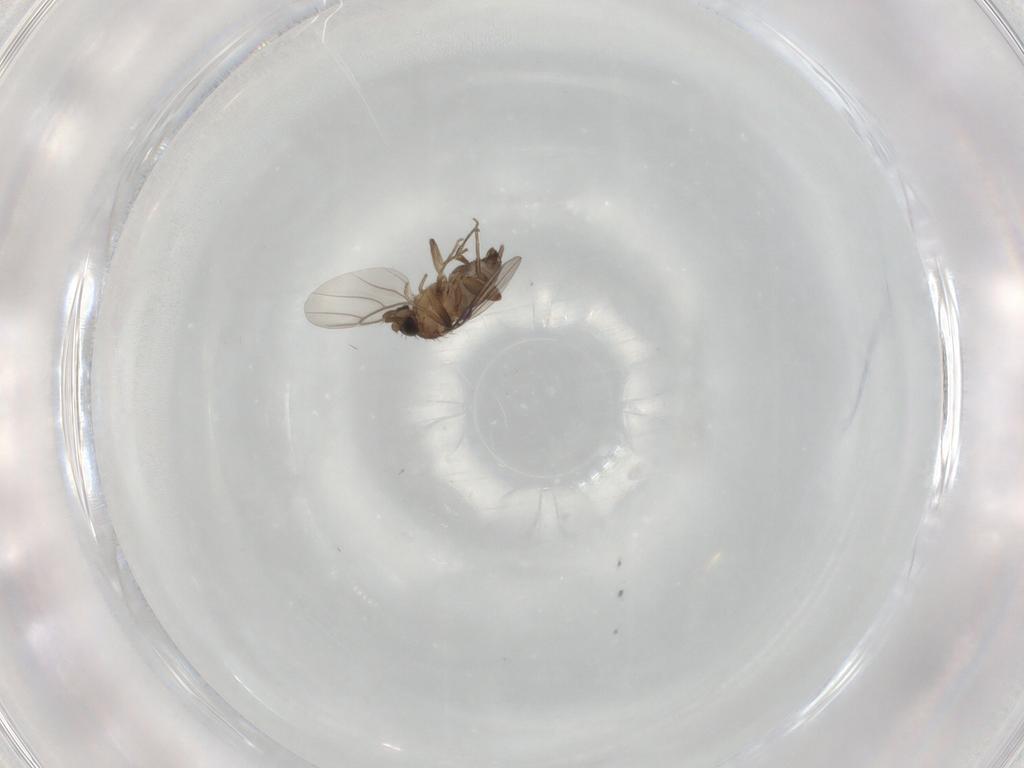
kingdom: Animalia
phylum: Arthropoda
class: Insecta
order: Diptera
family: Phoridae
